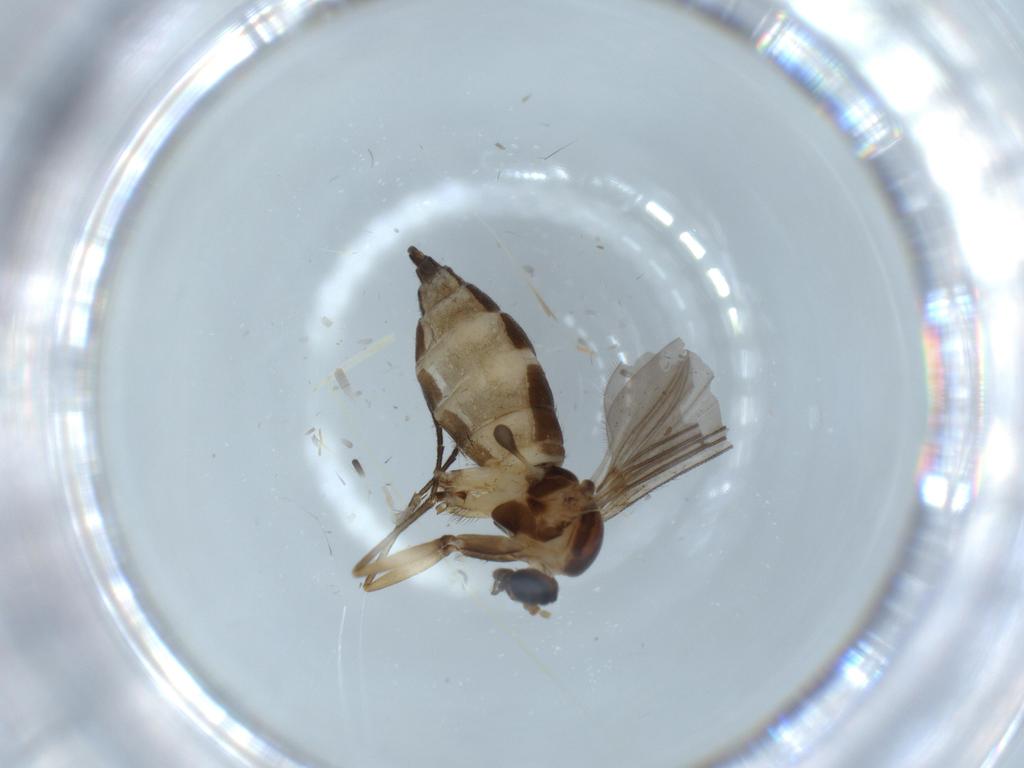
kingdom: Animalia
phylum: Arthropoda
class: Insecta
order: Diptera
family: Sciaridae
